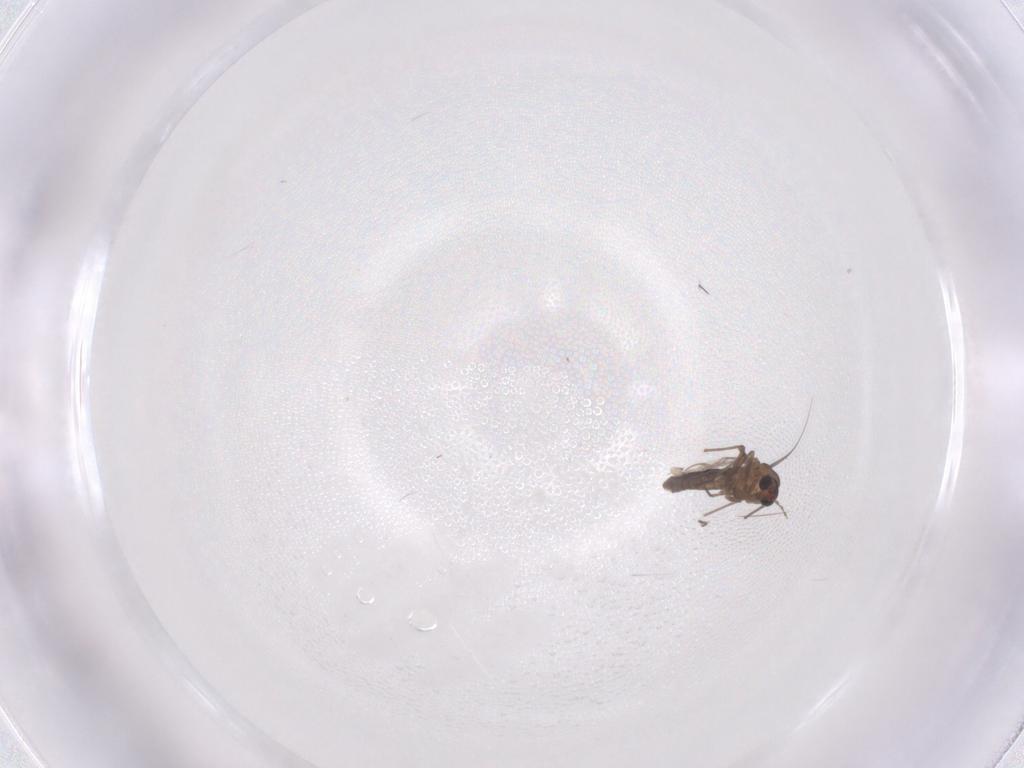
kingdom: Animalia
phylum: Arthropoda
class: Insecta
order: Diptera
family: Chironomidae
